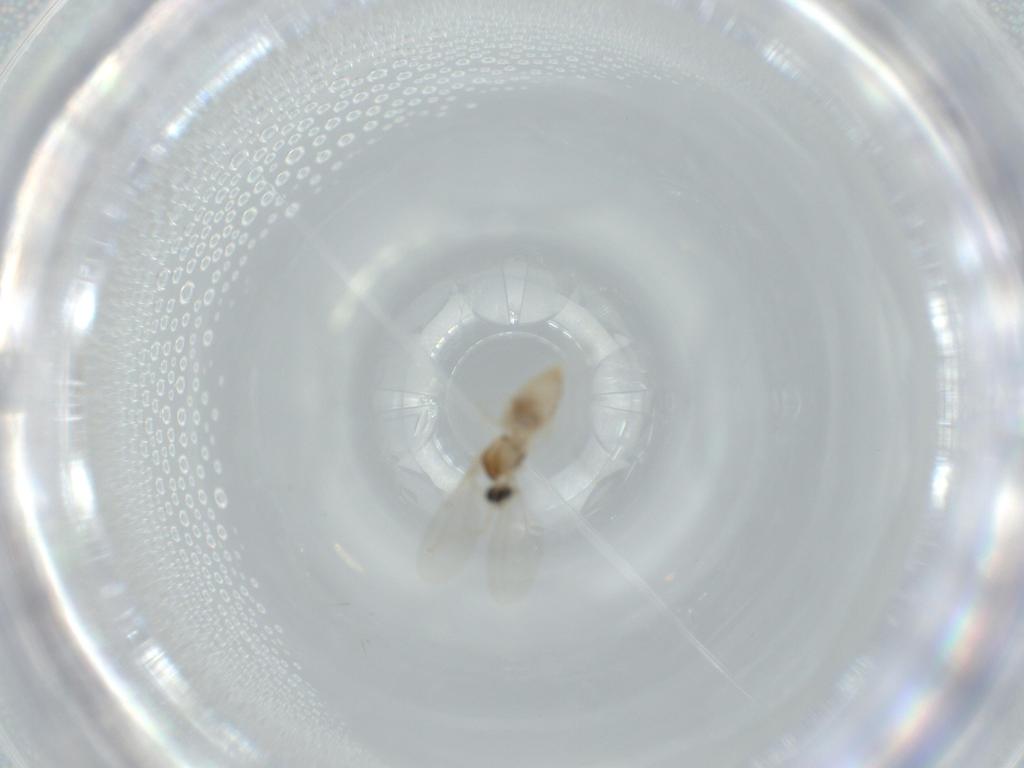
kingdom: Animalia
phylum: Arthropoda
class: Insecta
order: Diptera
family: Cecidomyiidae
